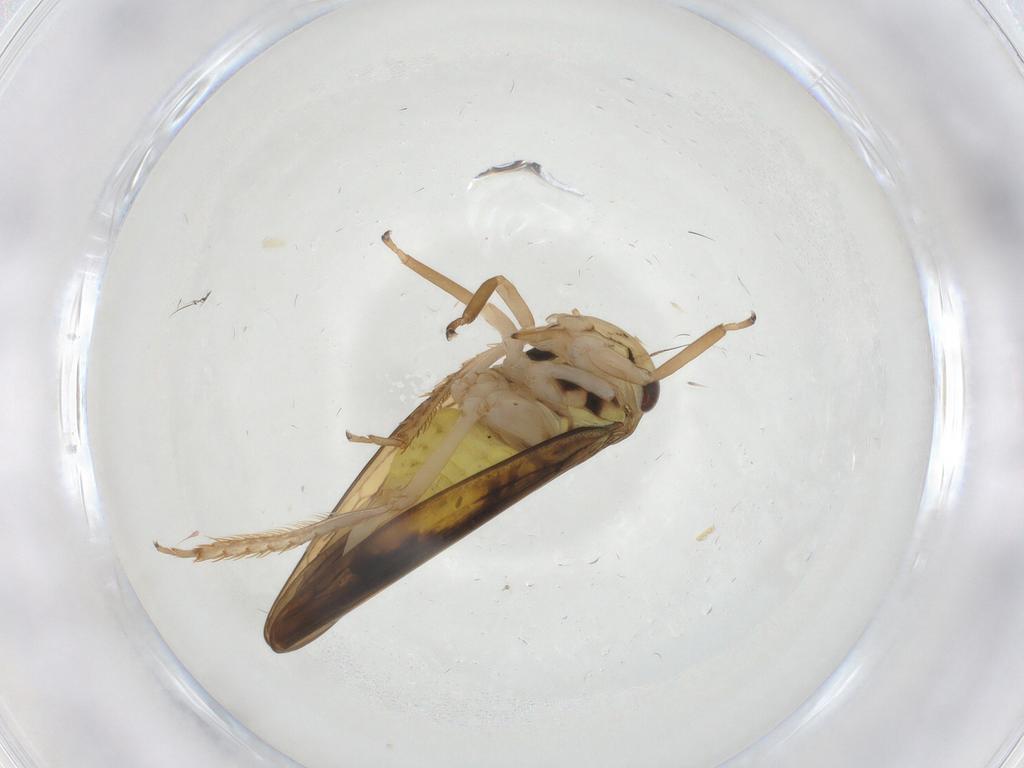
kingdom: Animalia
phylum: Arthropoda
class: Insecta
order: Hemiptera
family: Cicadellidae
